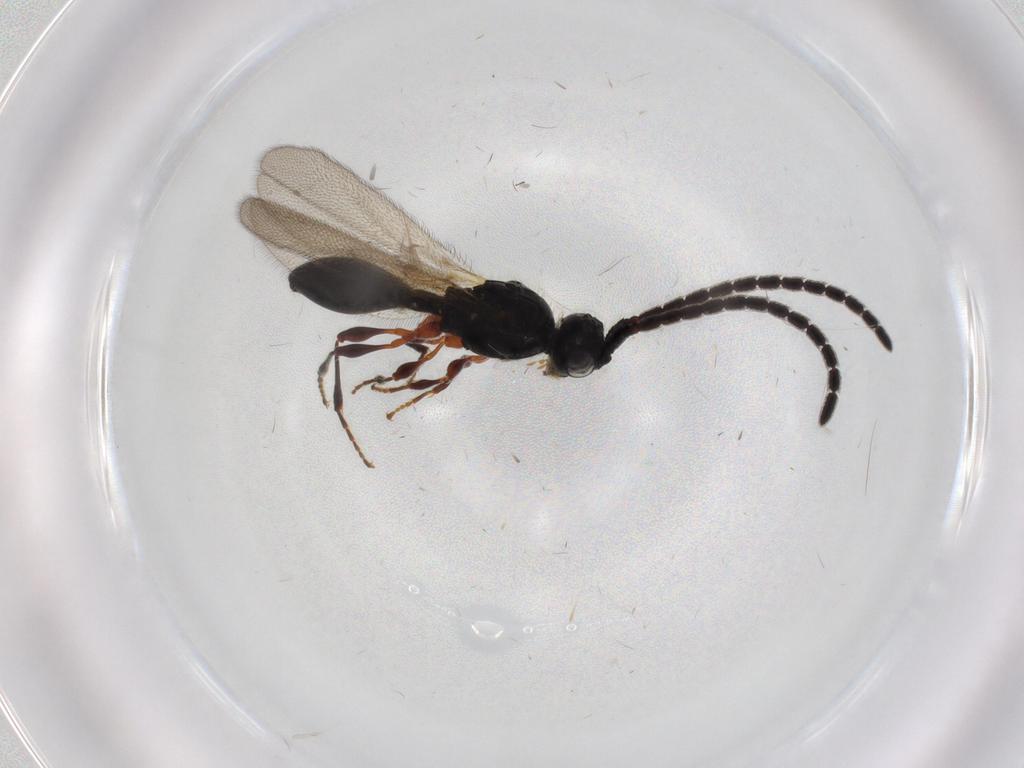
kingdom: Animalia
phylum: Arthropoda
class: Insecta
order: Hymenoptera
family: Diapriidae
